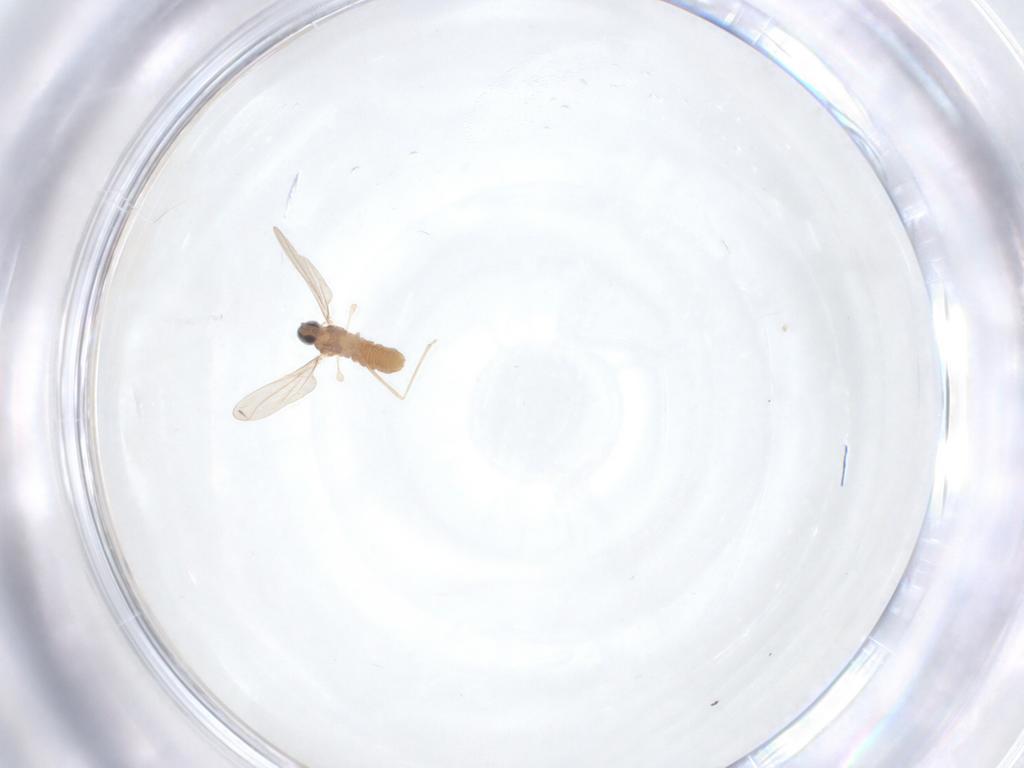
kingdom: Animalia
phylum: Arthropoda
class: Insecta
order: Diptera
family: Cecidomyiidae
